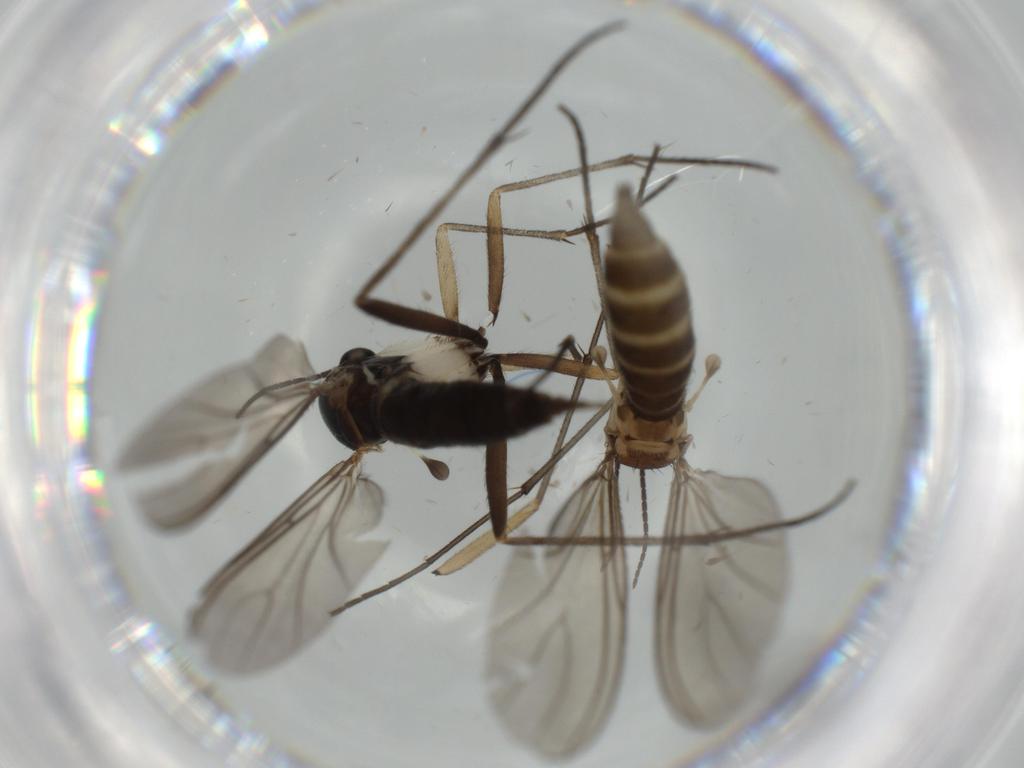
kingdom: Animalia
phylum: Arthropoda
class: Insecta
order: Diptera
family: Sciaridae
